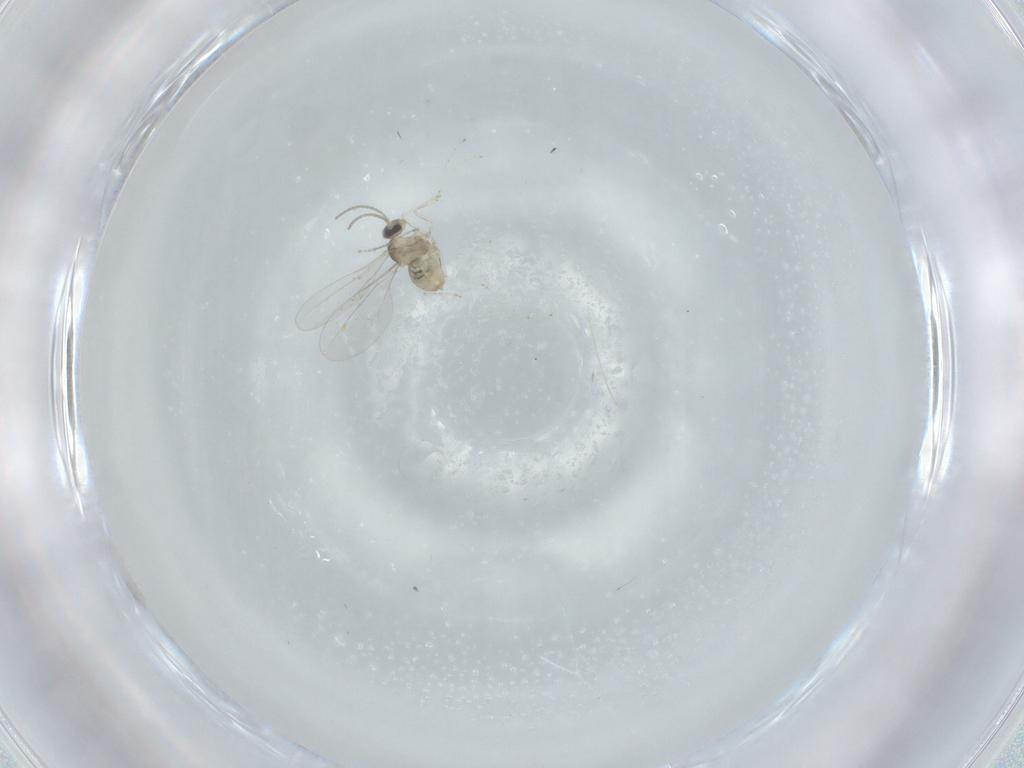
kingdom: Animalia
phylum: Arthropoda
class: Insecta
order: Diptera
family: Cecidomyiidae
